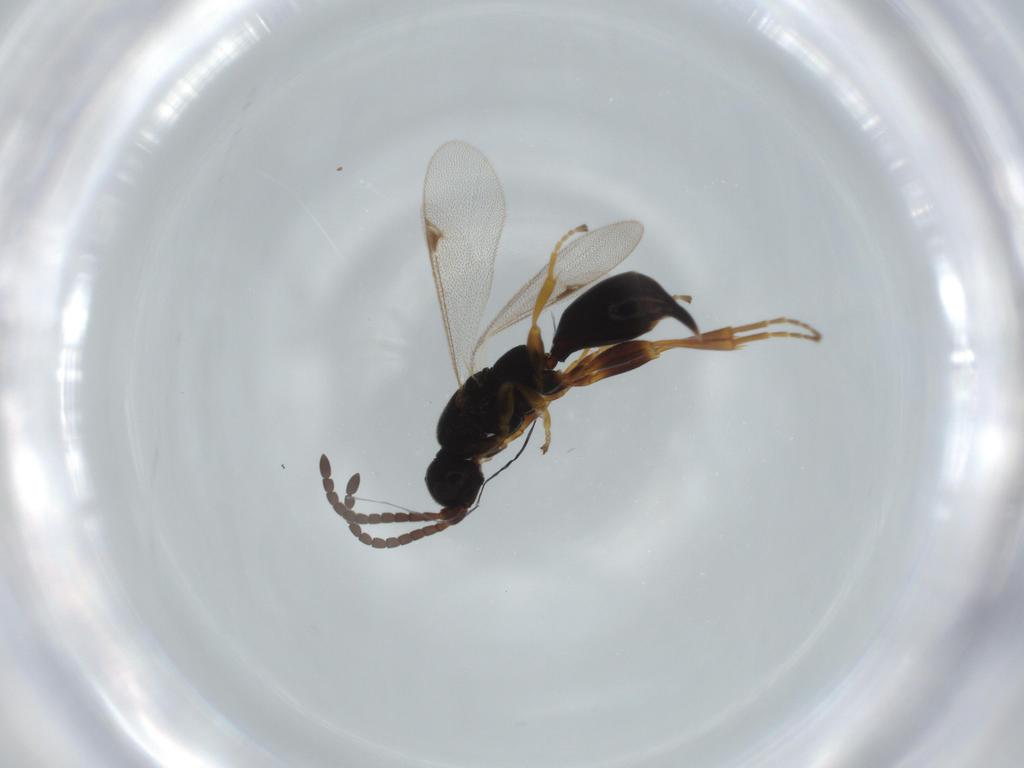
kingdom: Animalia
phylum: Arthropoda
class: Insecta
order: Hymenoptera
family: Proctotrupidae
